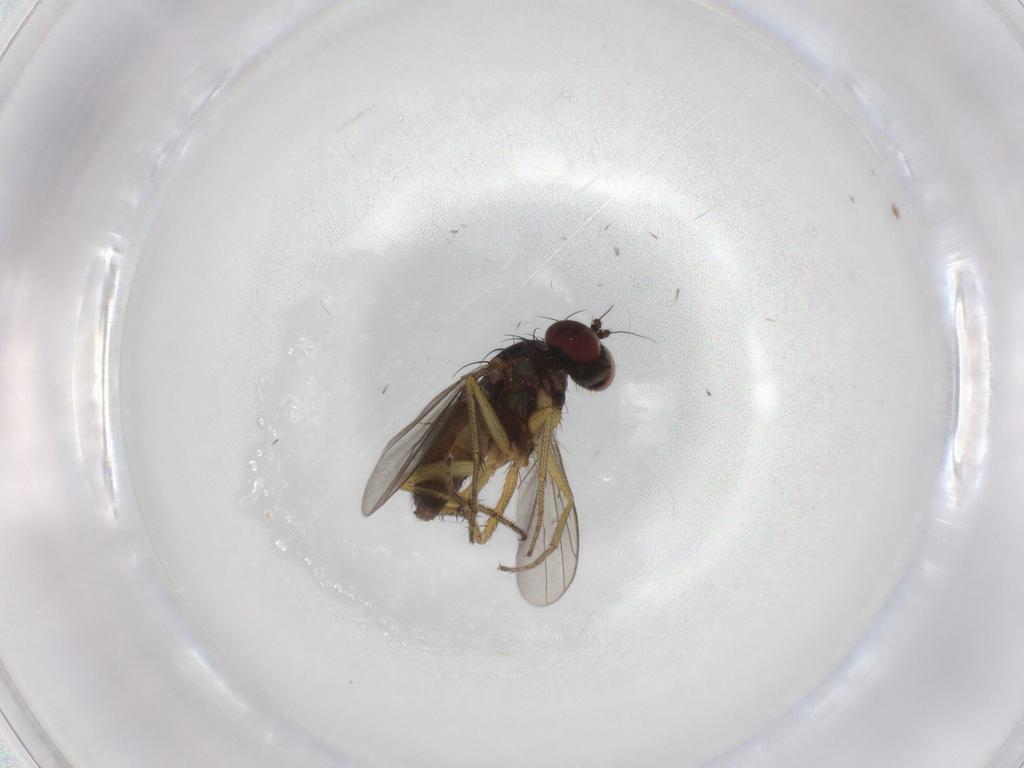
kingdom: Animalia
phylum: Arthropoda
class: Insecta
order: Diptera
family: Dolichopodidae
